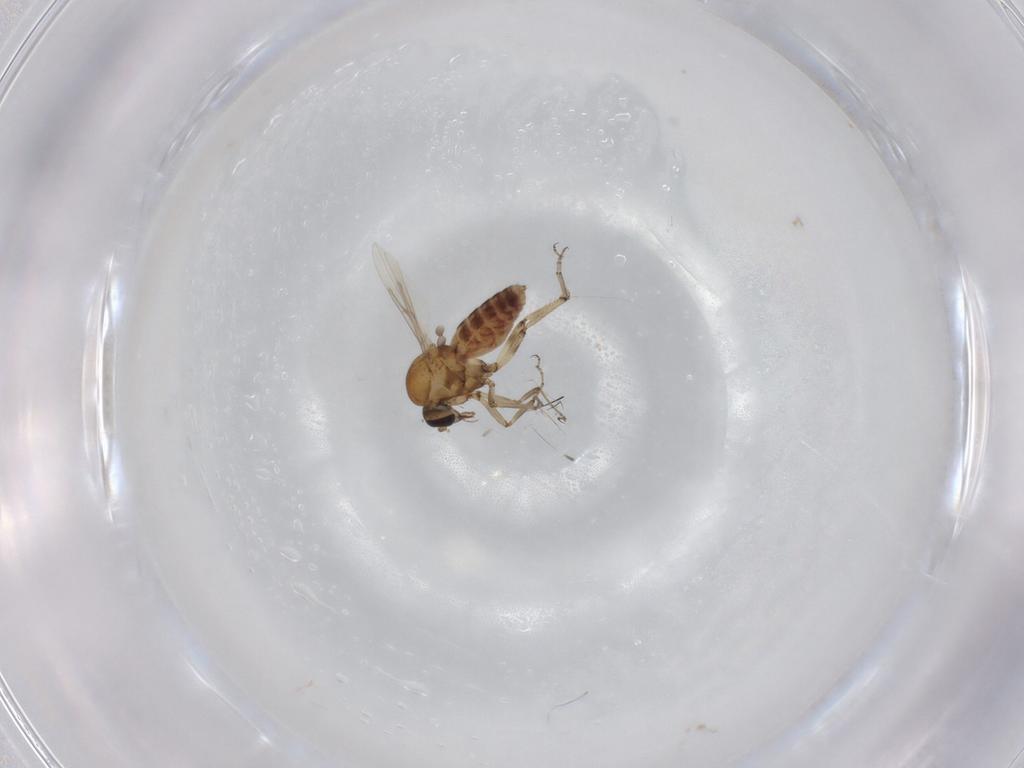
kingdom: Animalia
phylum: Arthropoda
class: Insecta
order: Diptera
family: Ceratopogonidae
